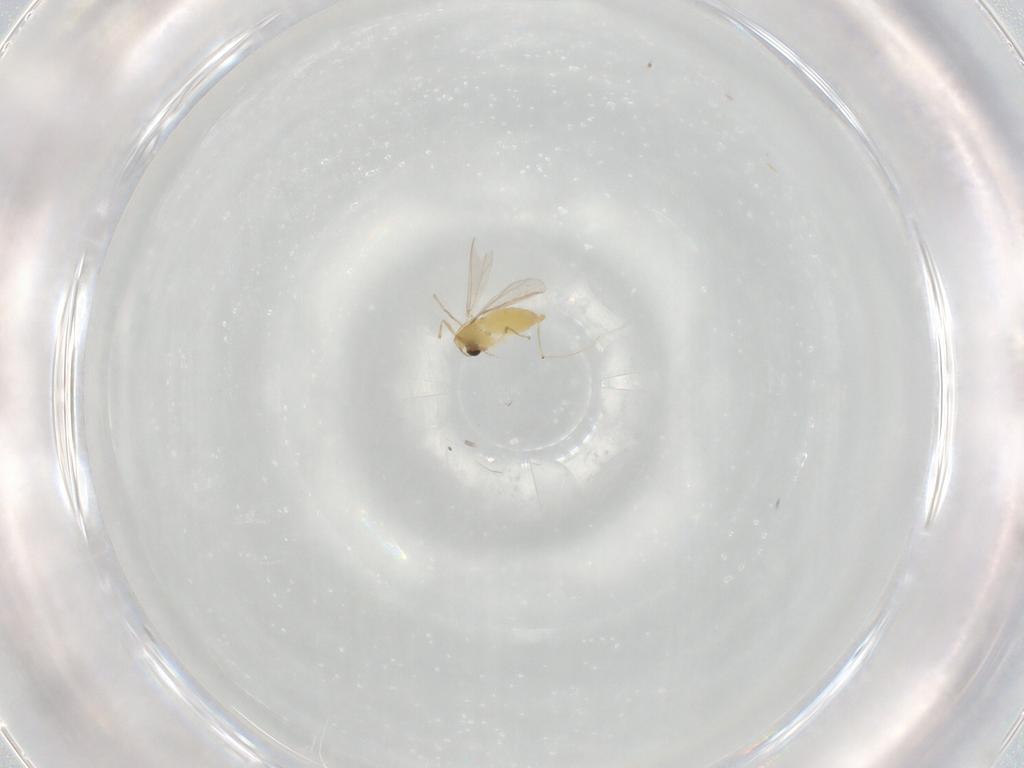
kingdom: Animalia
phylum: Arthropoda
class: Insecta
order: Diptera
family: Chironomidae
